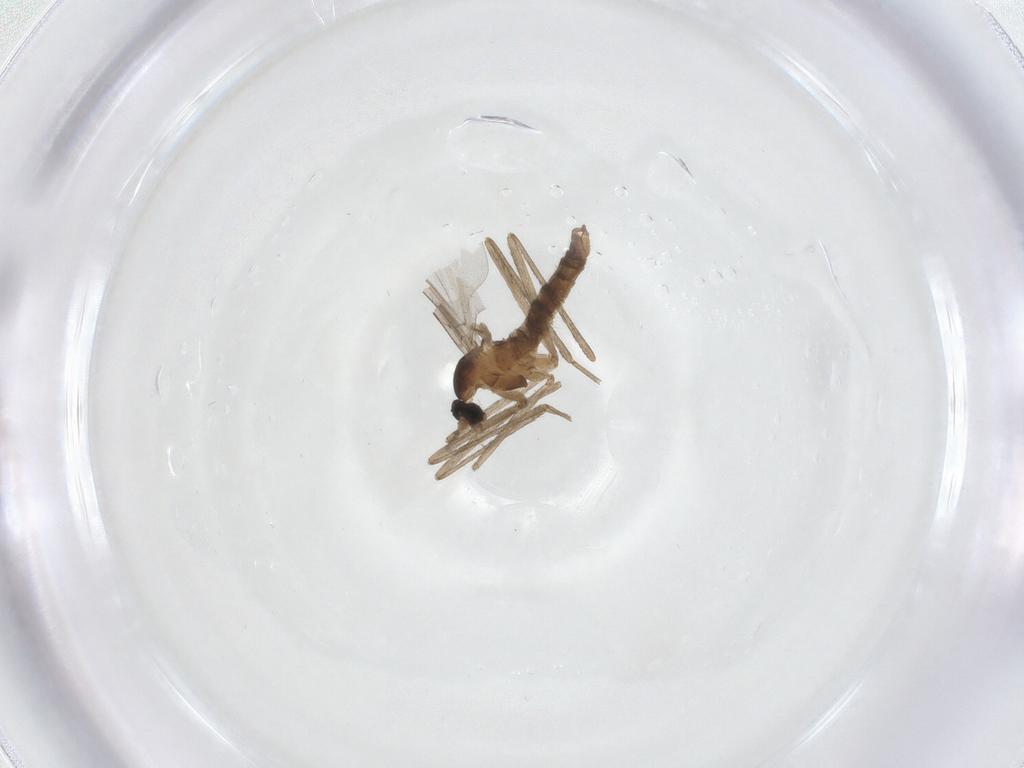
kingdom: Animalia
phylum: Arthropoda
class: Insecta
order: Diptera
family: Cecidomyiidae
